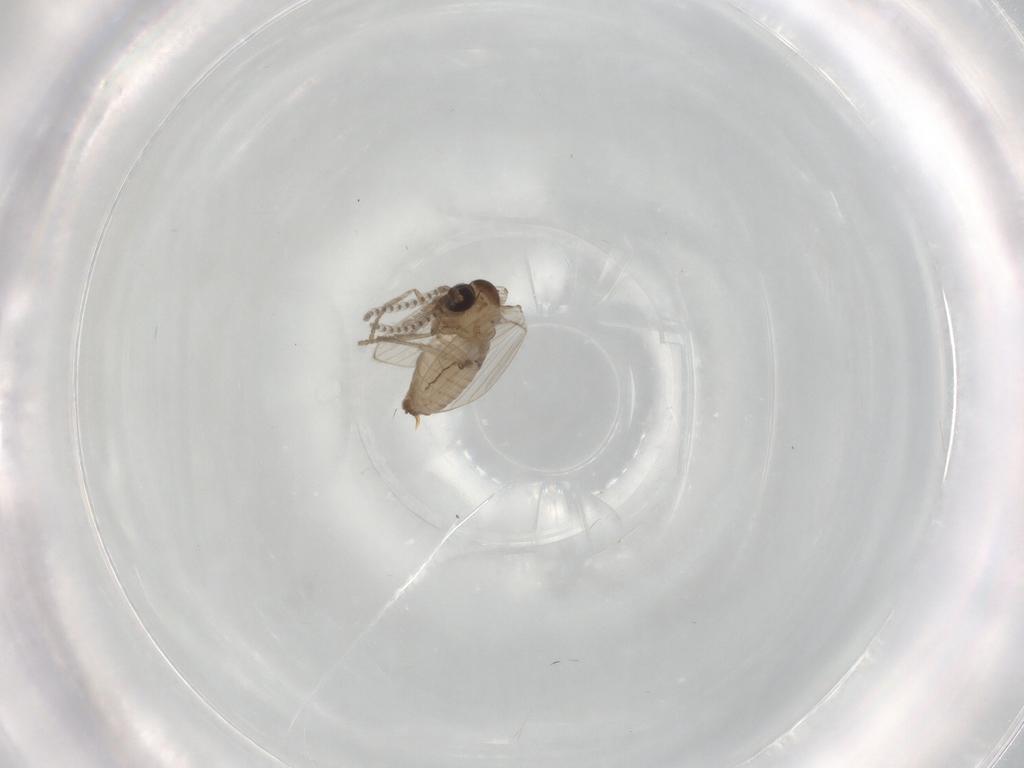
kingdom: Animalia
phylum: Arthropoda
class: Insecta
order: Diptera
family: Psychodidae
